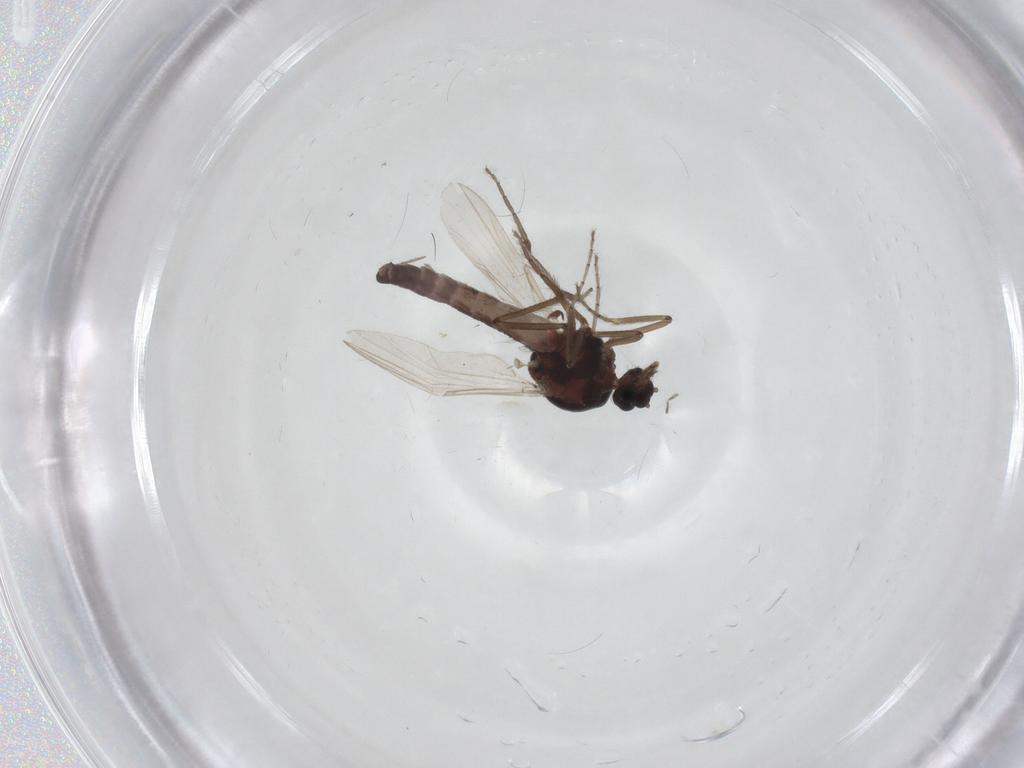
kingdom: Animalia
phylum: Arthropoda
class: Insecta
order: Diptera
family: Ceratopogonidae
